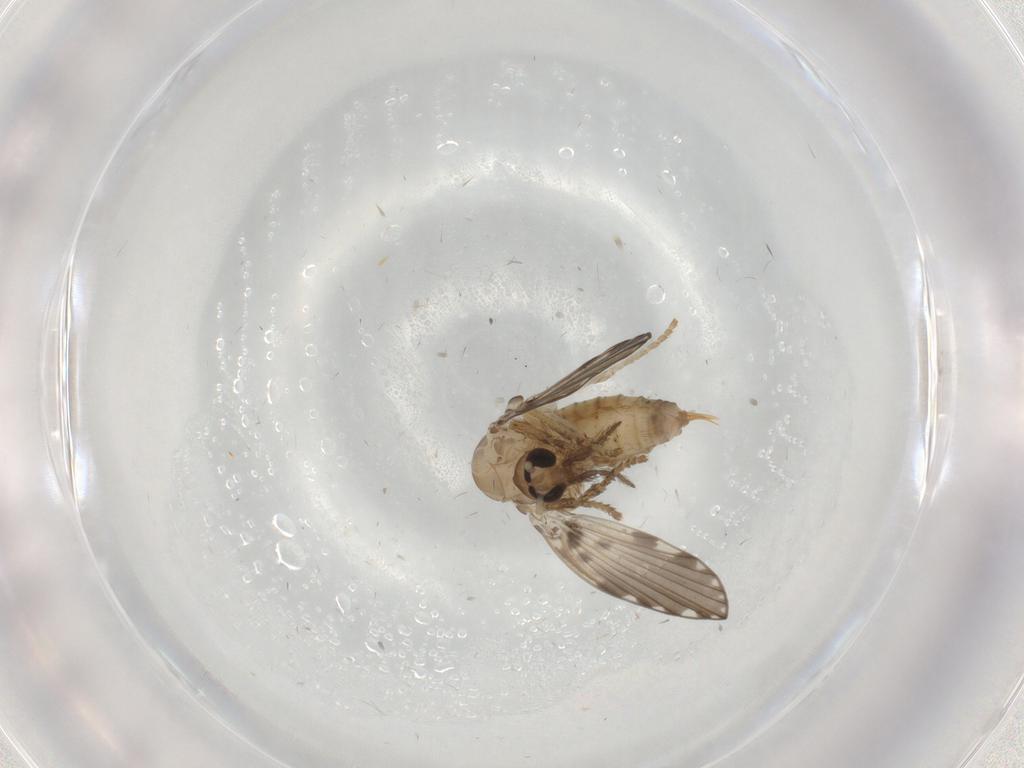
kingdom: Animalia
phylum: Arthropoda
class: Insecta
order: Diptera
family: Psychodidae
